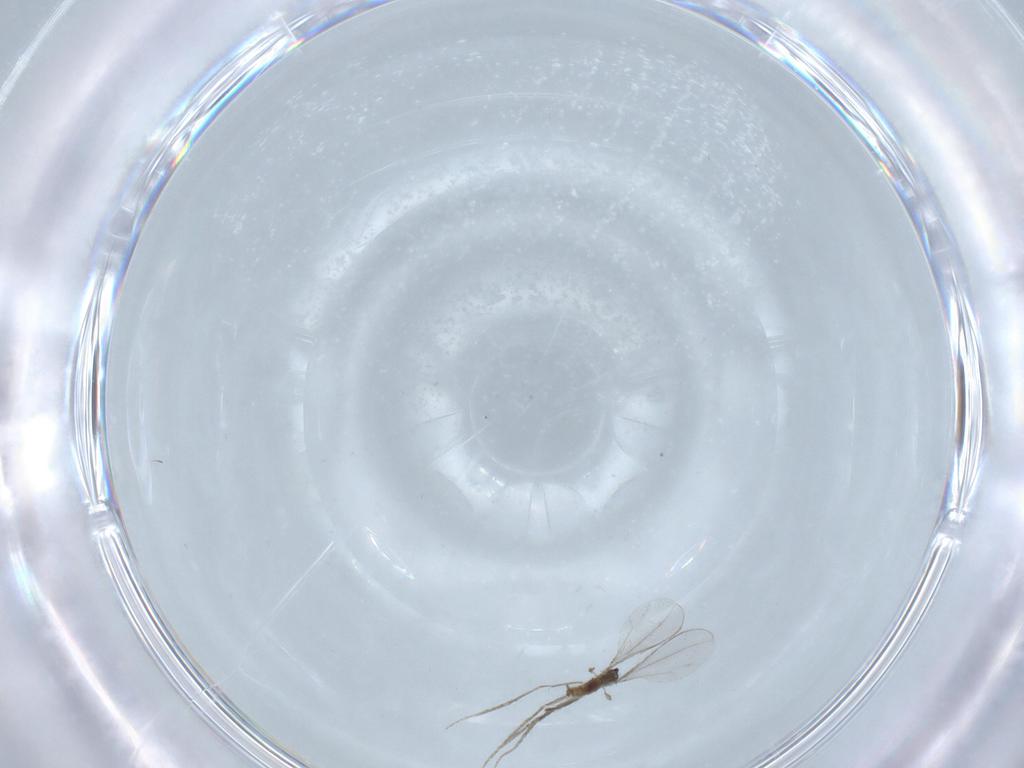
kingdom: Animalia
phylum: Arthropoda
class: Insecta
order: Diptera
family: Cecidomyiidae
